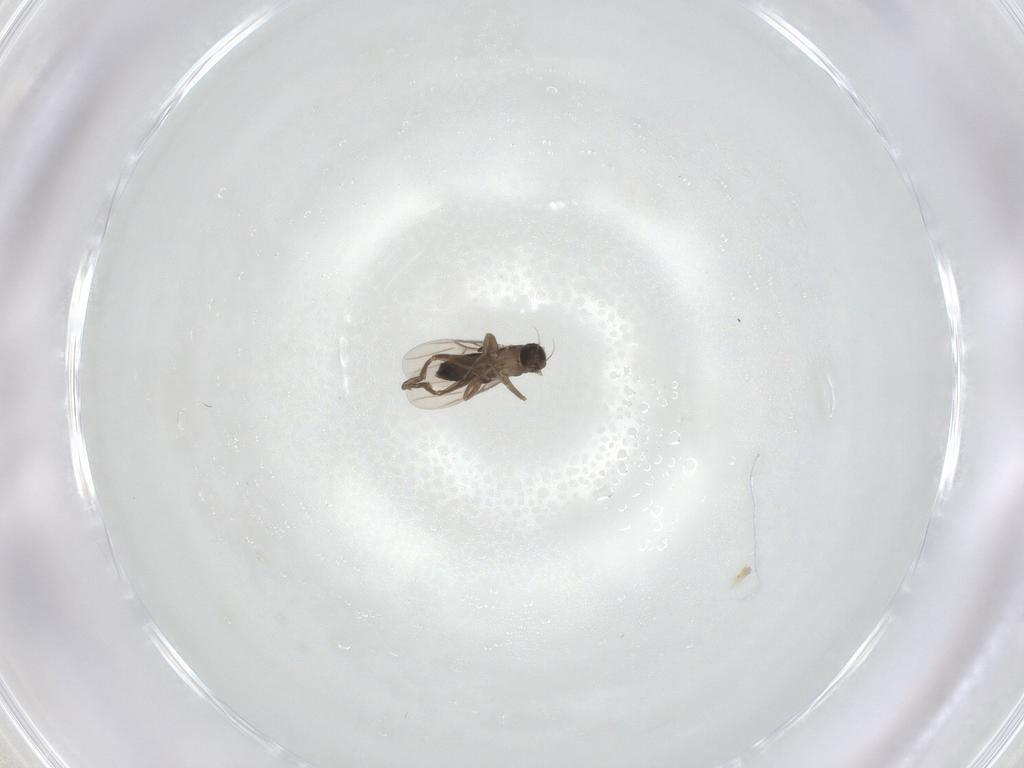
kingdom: Animalia
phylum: Arthropoda
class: Insecta
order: Diptera
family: Phoridae
